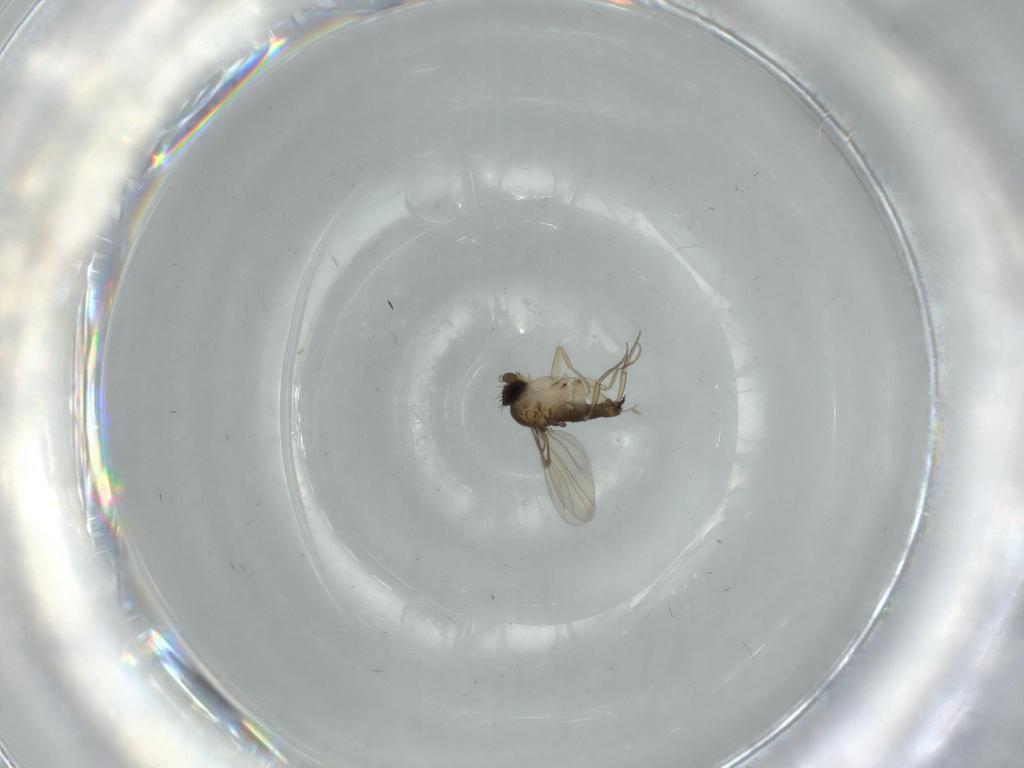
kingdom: Animalia
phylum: Arthropoda
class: Insecta
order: Diptera
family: Phoridae
